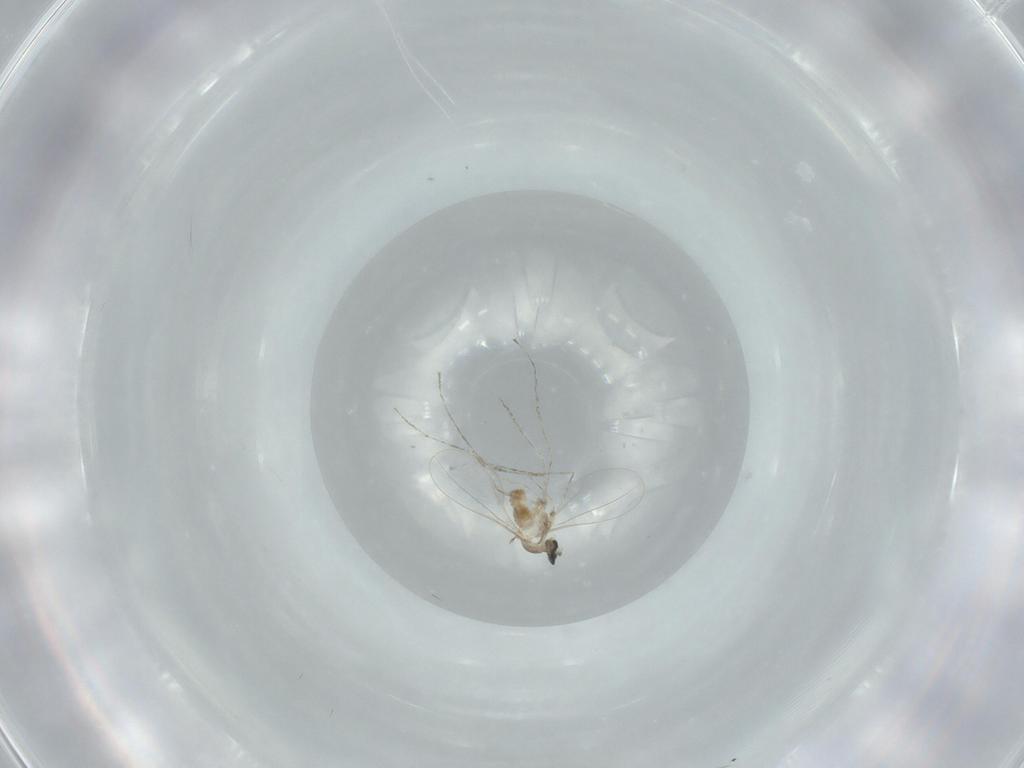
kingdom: Animalia
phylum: Arthropoda
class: Insecta
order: Diptera
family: Cecidomyiidae
